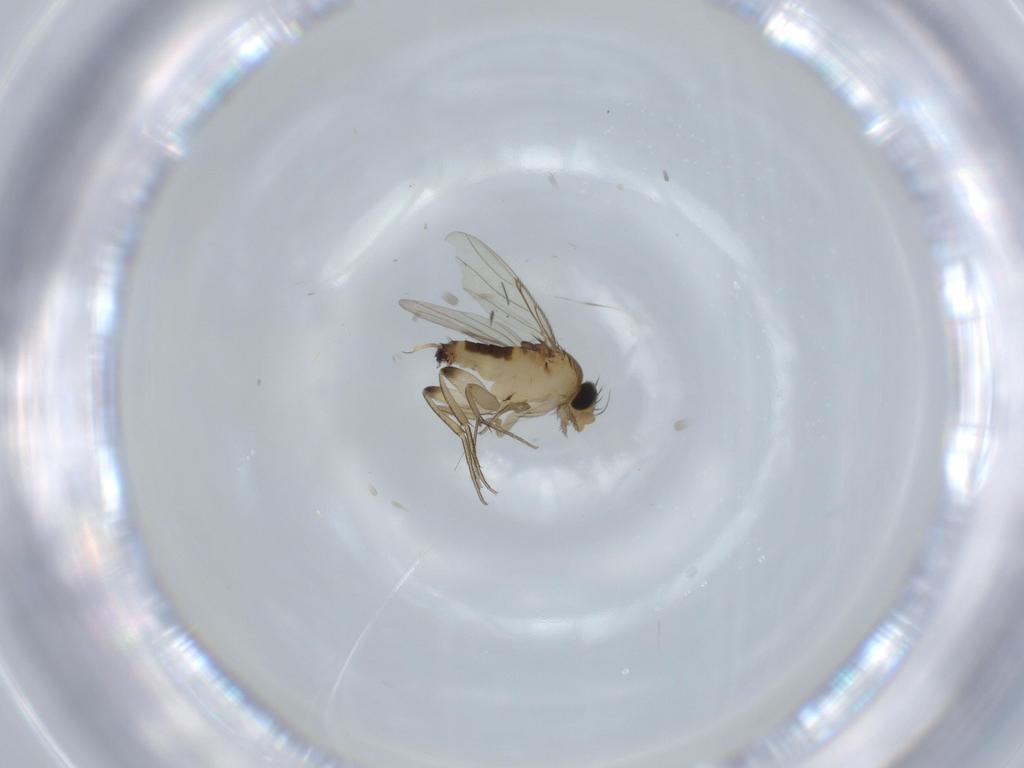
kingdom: Animalia
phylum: Arthropoda
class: Insecta
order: Diptera
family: Phoridae
